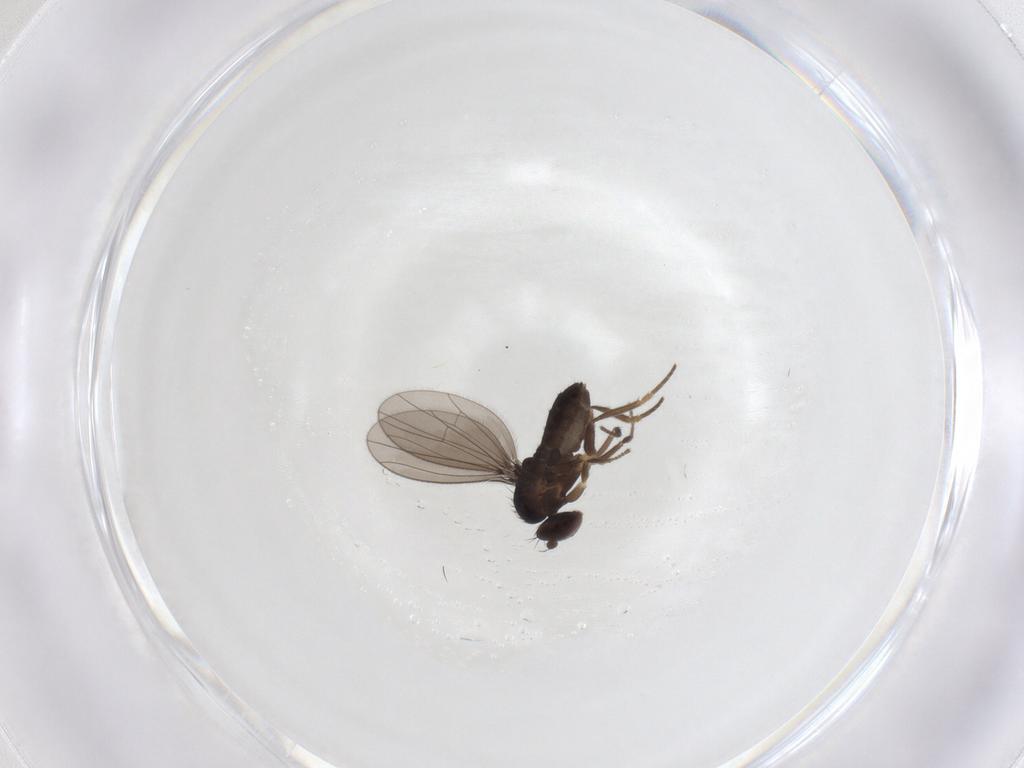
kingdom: Animalia
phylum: Arthropoda
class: Insecta
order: Diptera
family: Dolichopodidae
